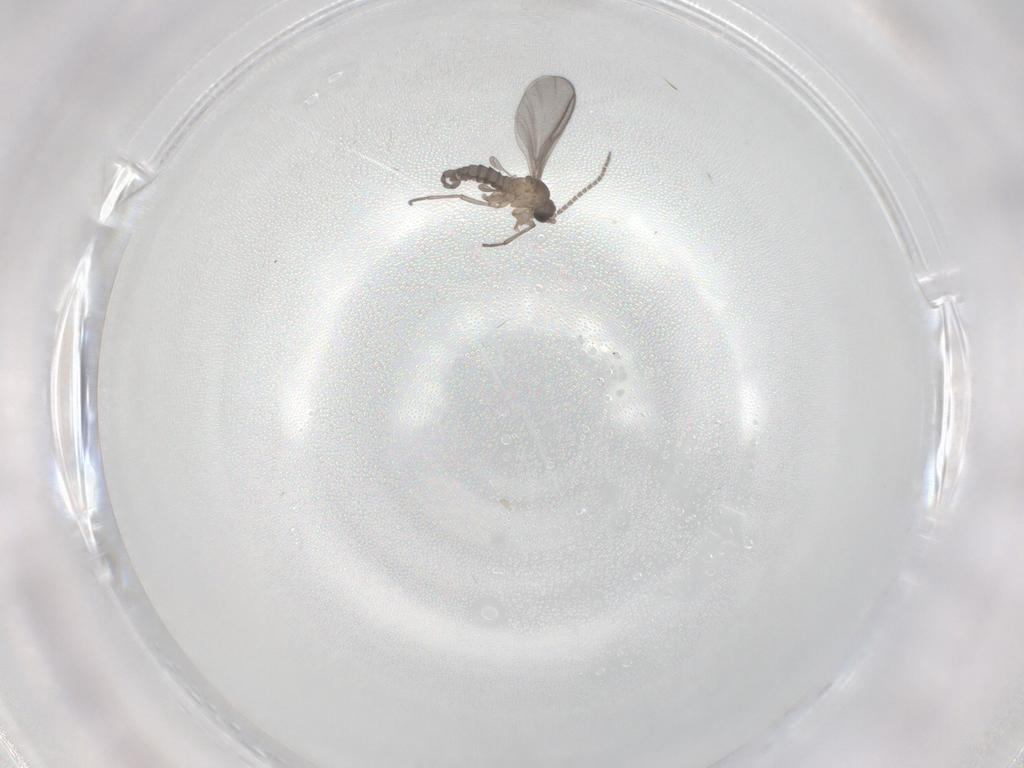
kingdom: Animalia
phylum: Arthropoda
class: Insecta
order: Diptera
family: Sciaridae
